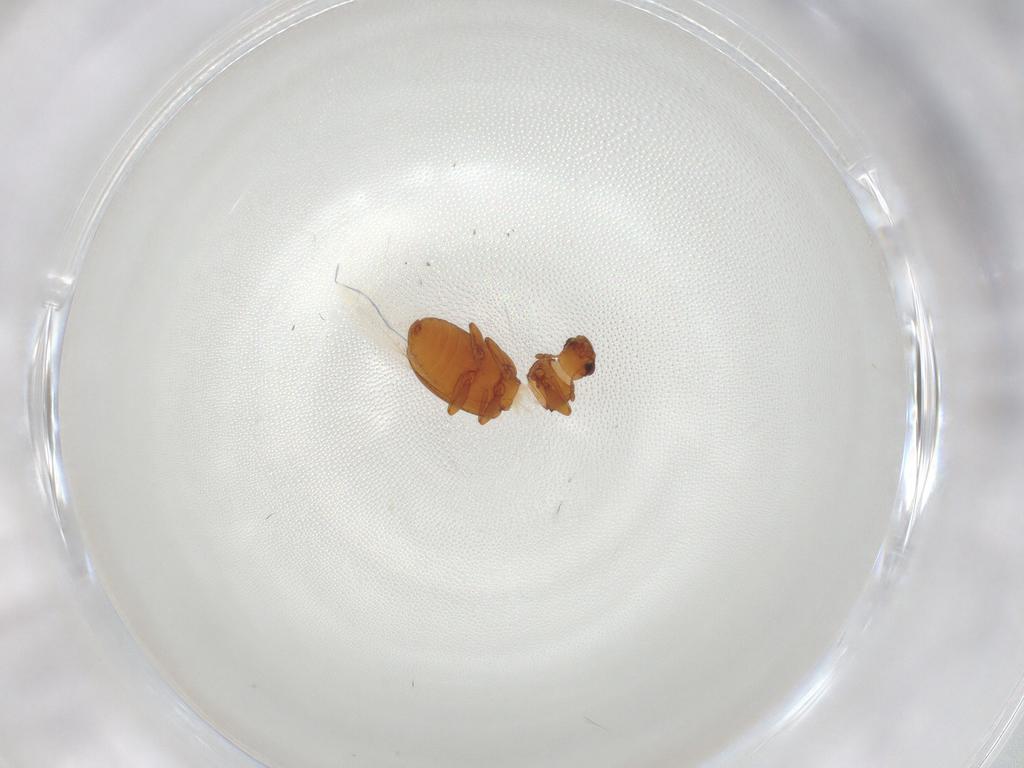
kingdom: Animalia
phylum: Arthropoda
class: Insecta
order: Coleoptera
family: Latridiidae
